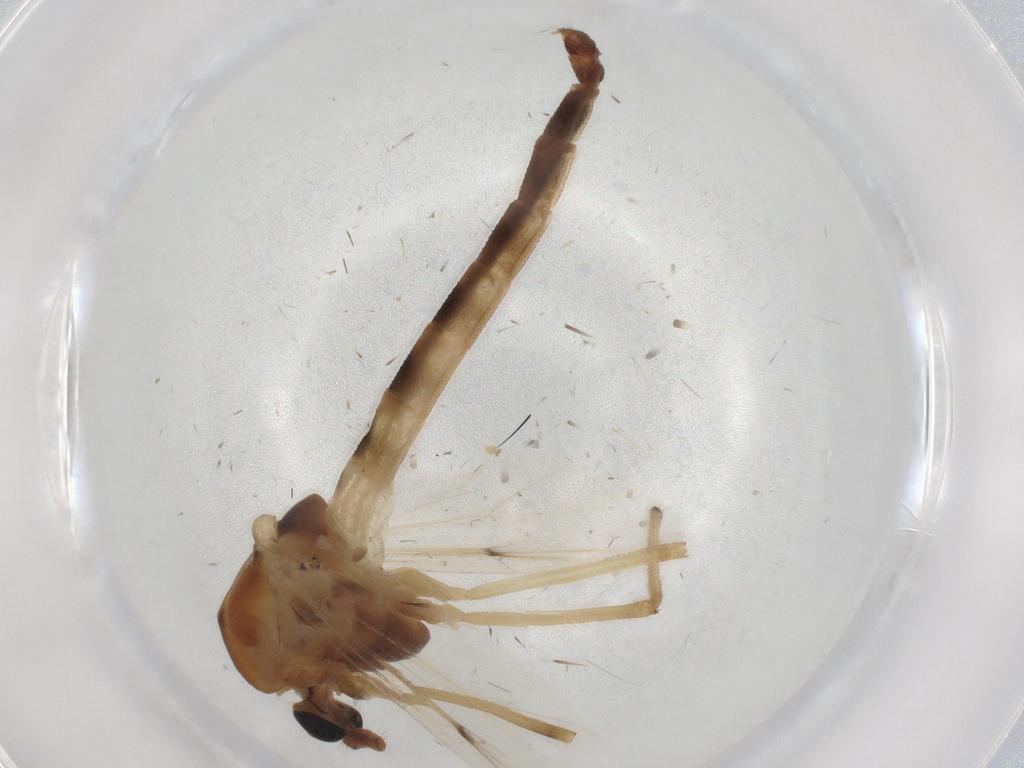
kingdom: Animalia
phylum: Arthropoda
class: Insecta
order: Diptera
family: Chironomidae
